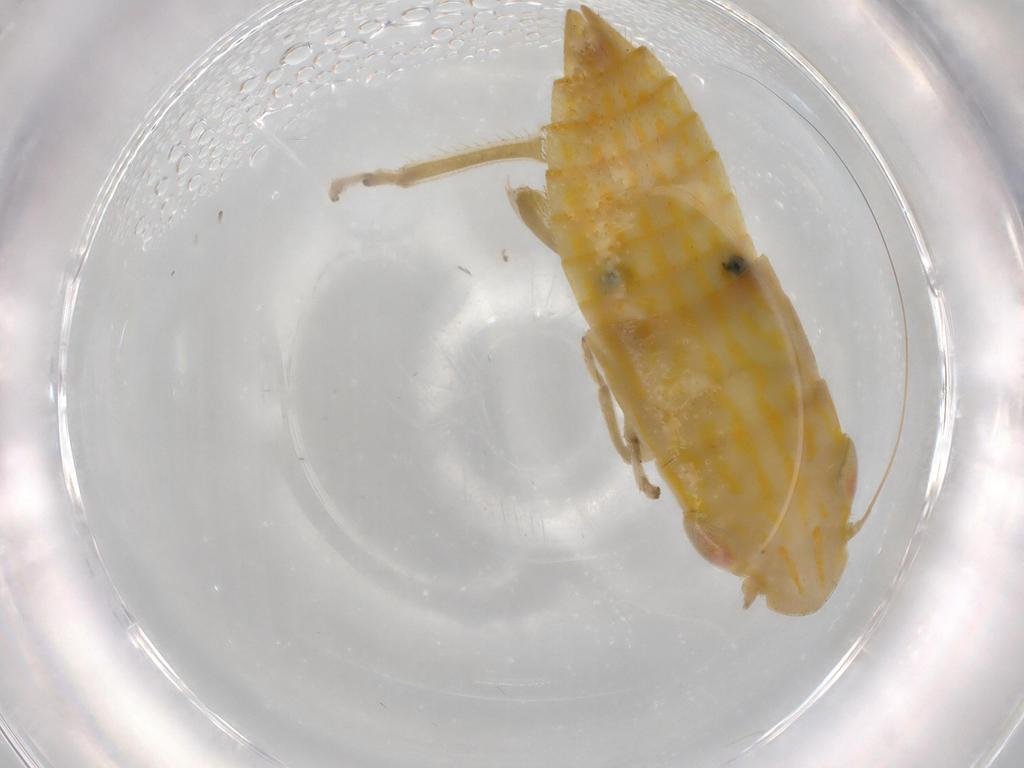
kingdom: Animalia
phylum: Arthropoda
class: Insecta
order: Hemiptera
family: Cicadellidae
